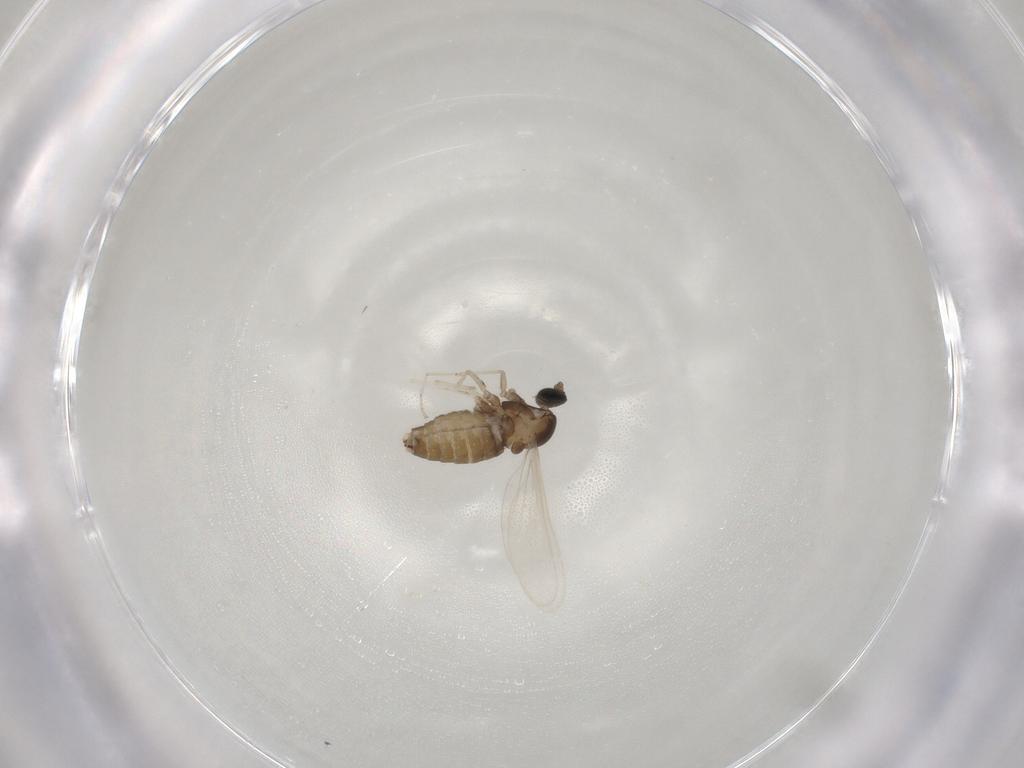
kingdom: Animalia
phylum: Arthropoda
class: Insecta
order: Diptera
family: Cecidomyiidae
